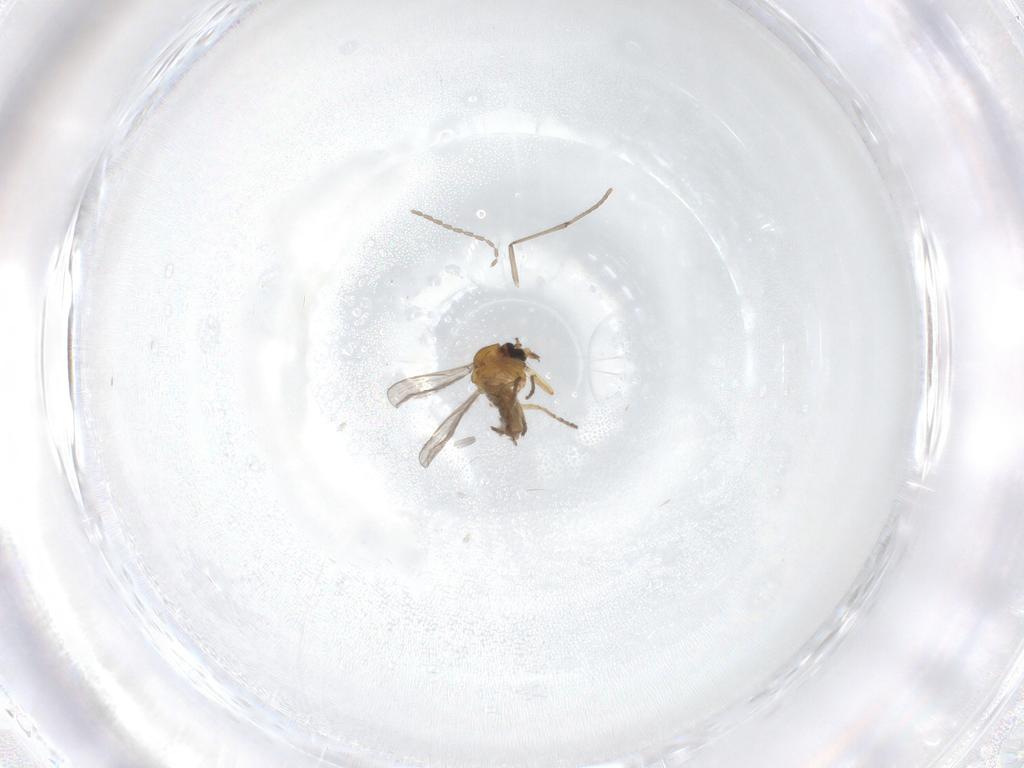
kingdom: Animalia
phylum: Arthropoda
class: Insecta
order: Diptera
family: Psychodidae
